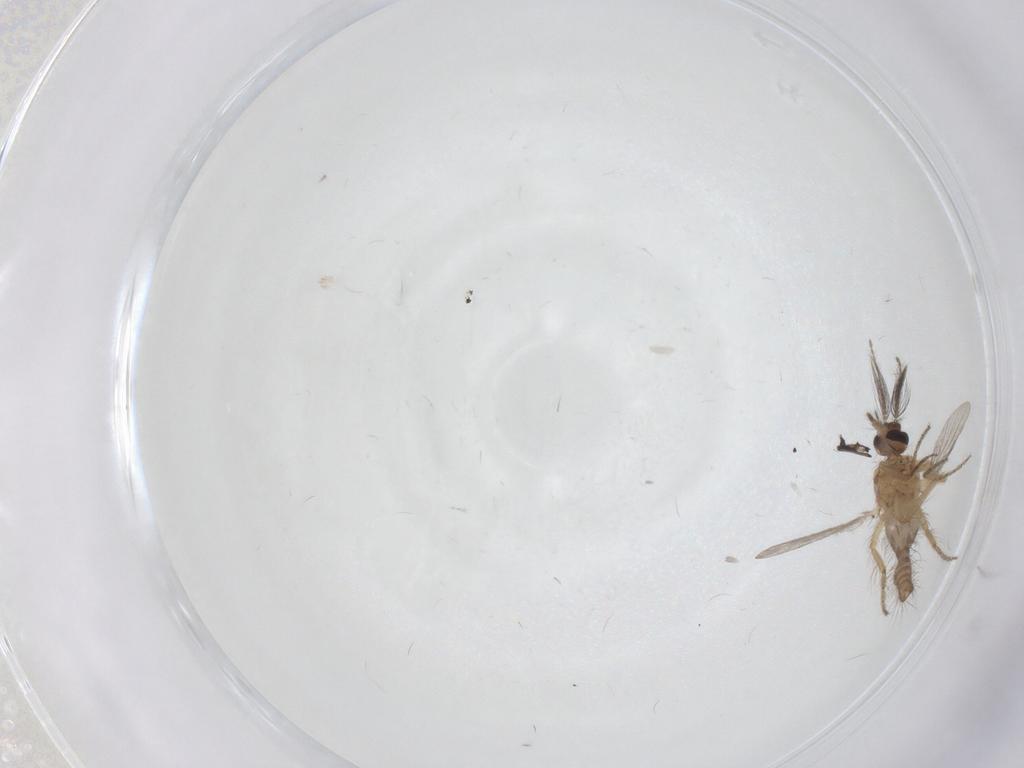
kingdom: Animalia
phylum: Arthropoda
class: Insecta
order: Diptera
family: Ceratopogonidae
